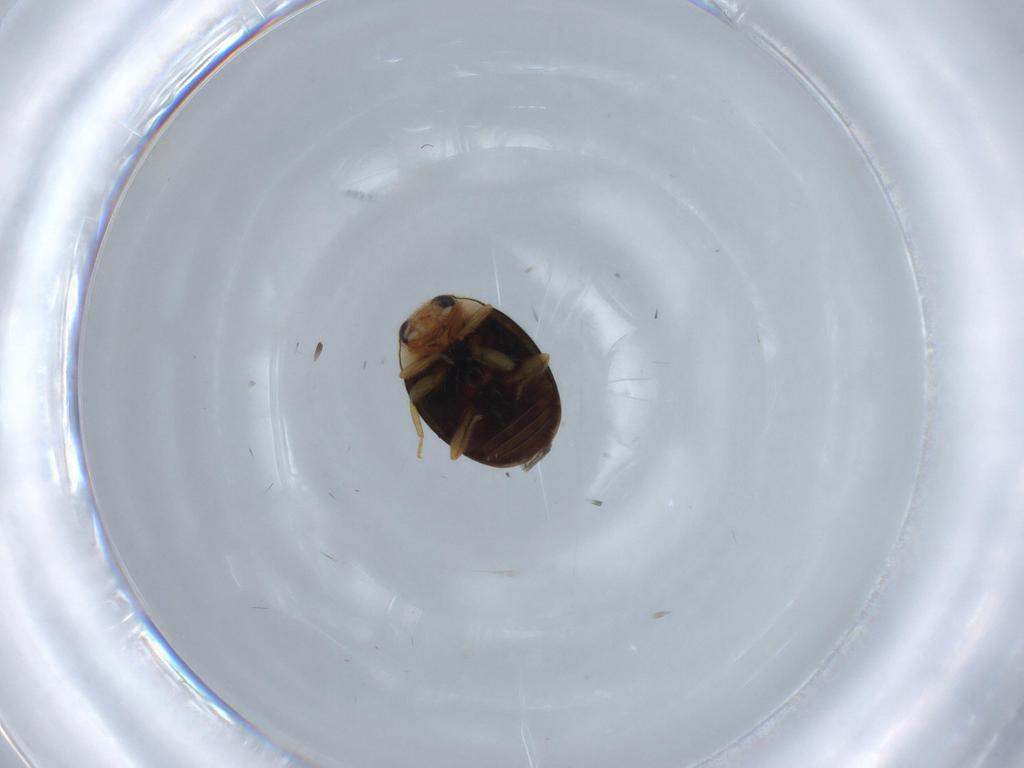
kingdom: Animalia
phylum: Arthropoda
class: Insecta
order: Coleoptera
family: Coccinellidae
